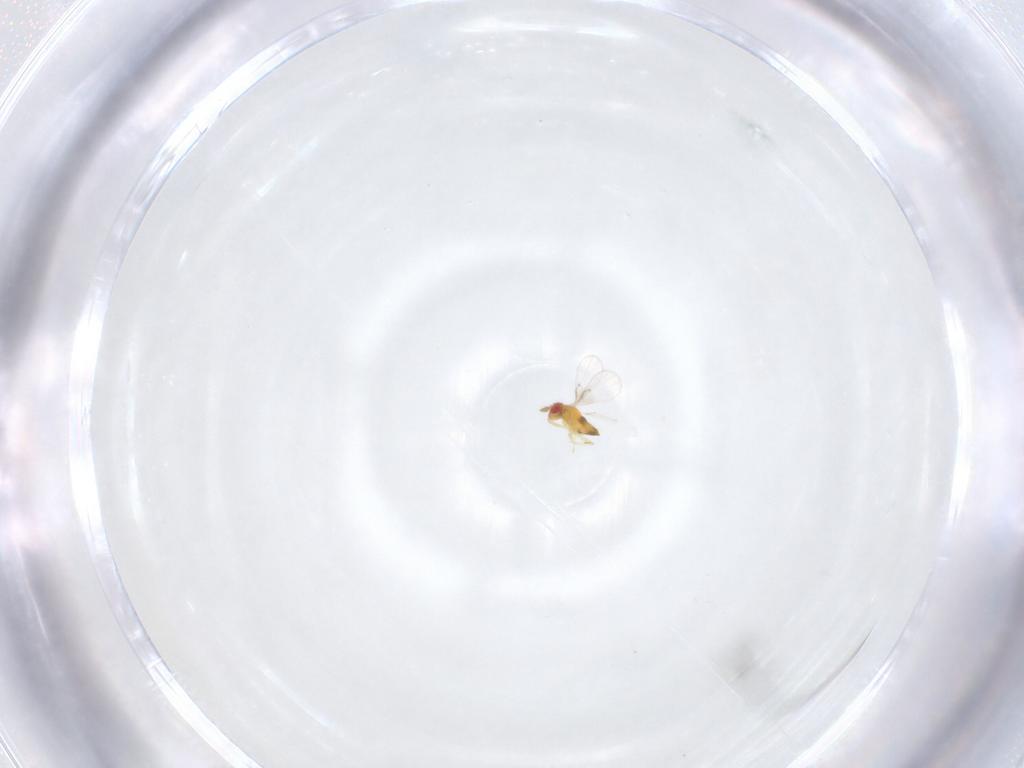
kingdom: Animalia
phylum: Arthropoda
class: Insecta
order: Hymenoptera
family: Trichogrammatidae
